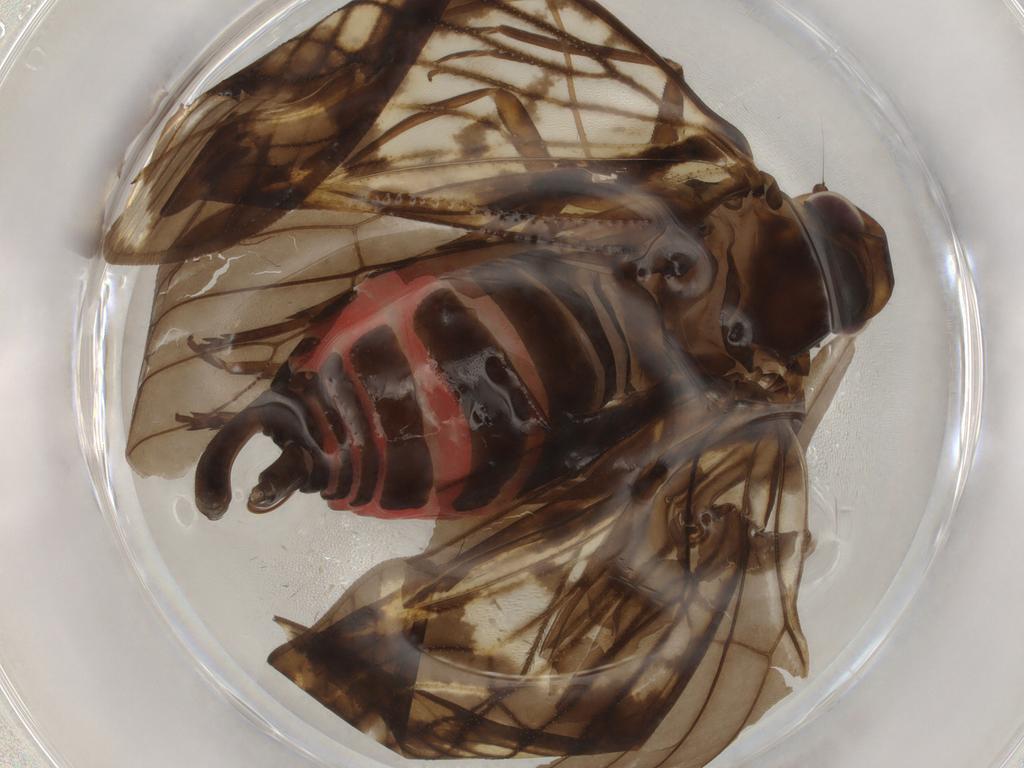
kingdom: Animalia
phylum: Arthropoda
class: Insecta
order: Hemiptera
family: Cixiidae
